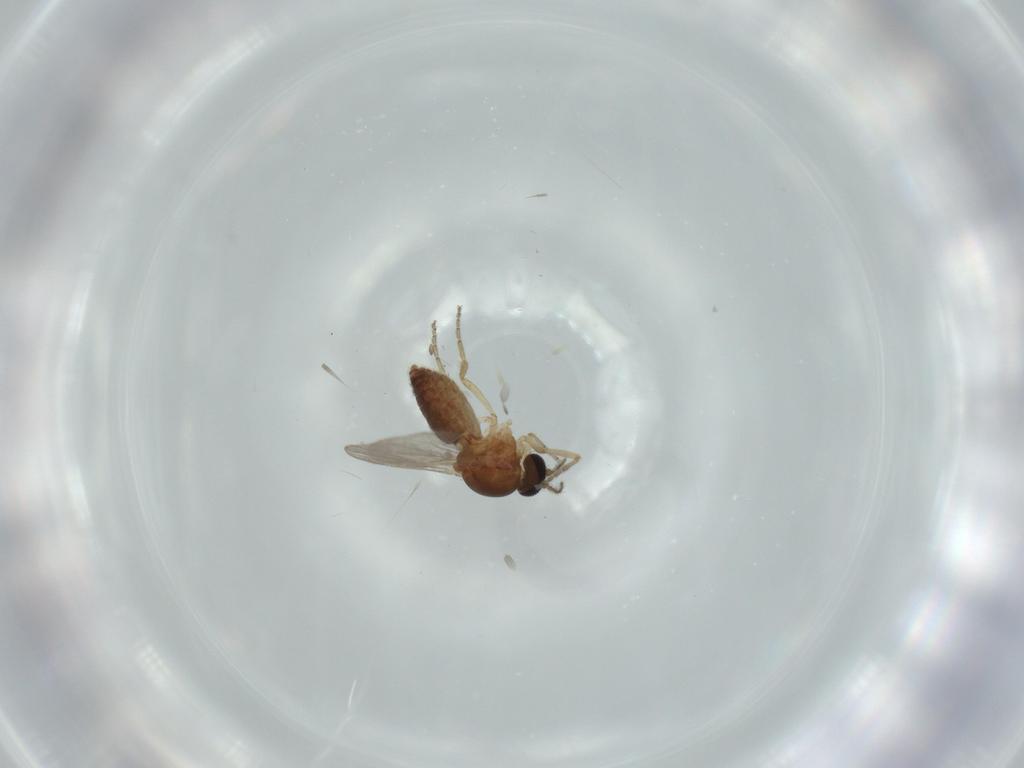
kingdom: Animalia
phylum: Arthropoda
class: Insecta
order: Diptera
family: Ceratopogonidae
